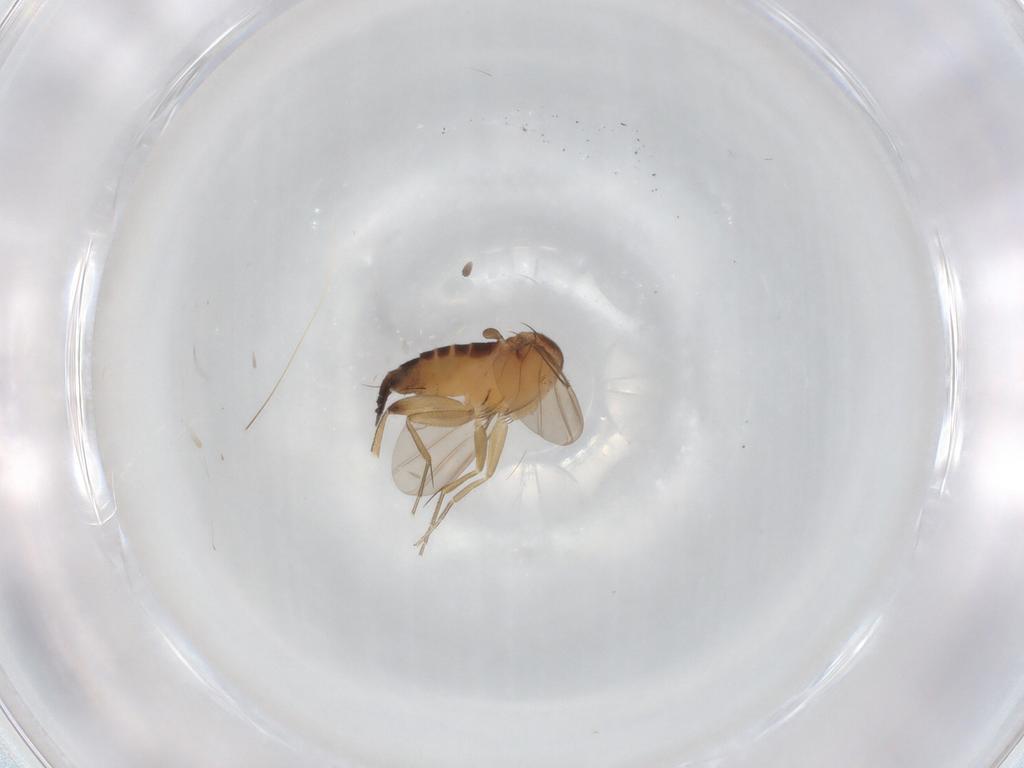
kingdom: Animalia
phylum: Arthropoda
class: Insecta
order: Diptera
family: Phoridae
